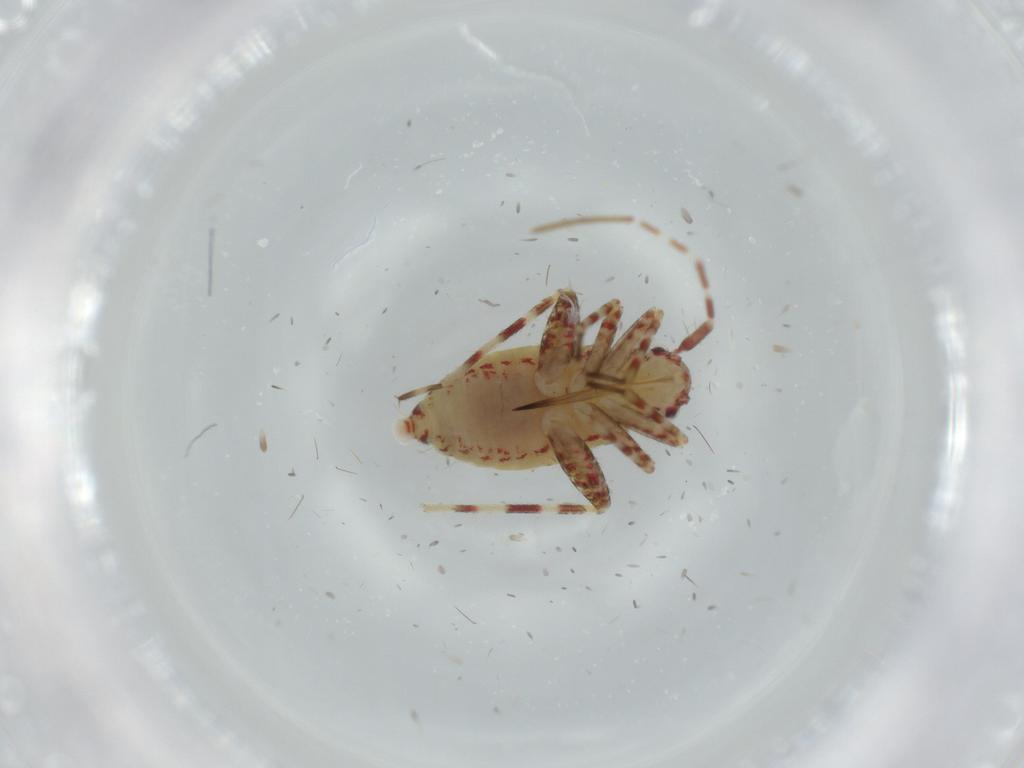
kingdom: Animalia
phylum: Arthropoda
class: Insecta
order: Hemiptera
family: Miridae
